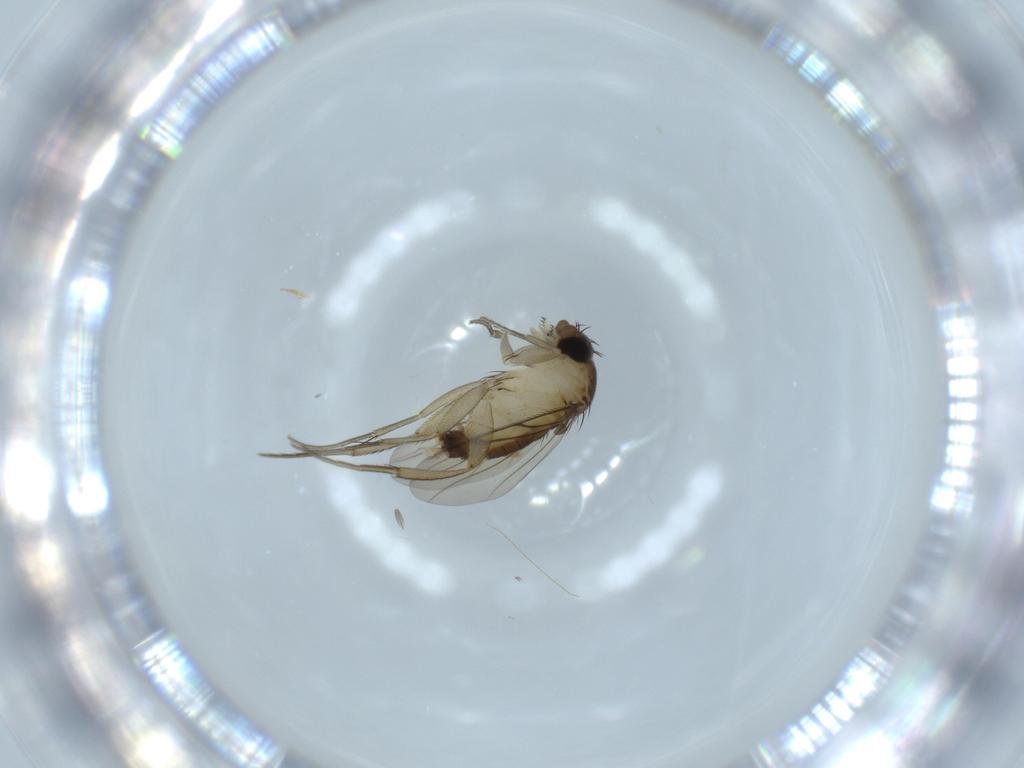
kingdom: Animalia
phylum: Arthropoda
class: Insecta
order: Diptera
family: Phoridae
